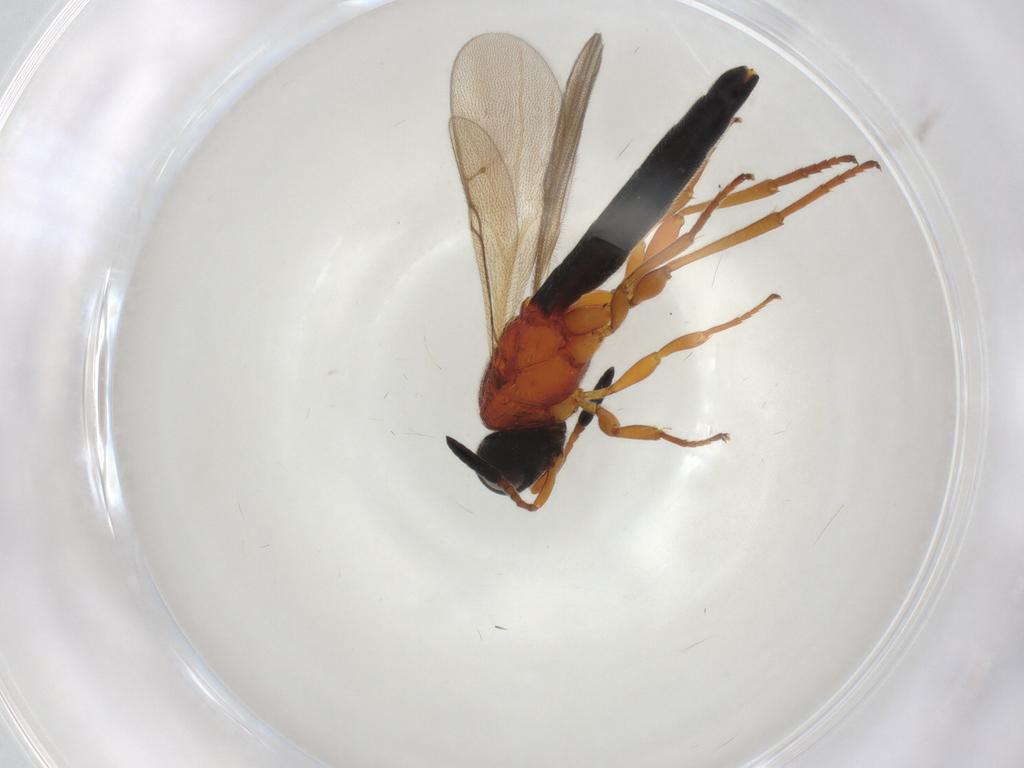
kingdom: Animalia
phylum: Arthropoda
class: Insecta
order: Hymenoptera
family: Scelionidae
